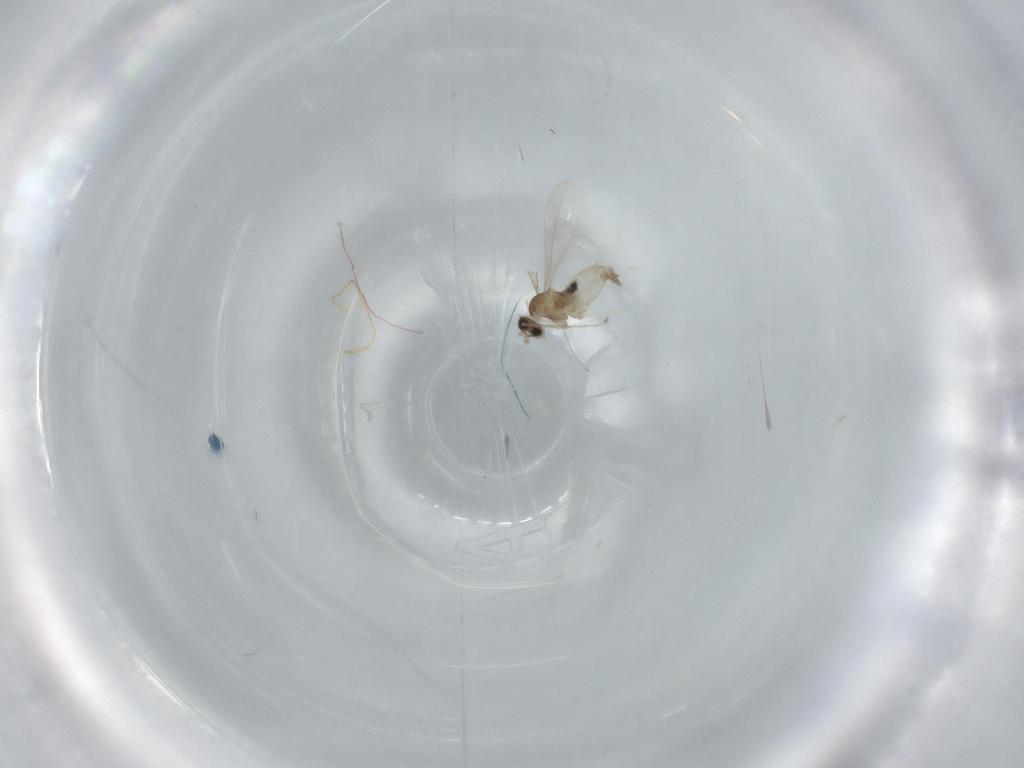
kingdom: Animalia
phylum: Arthropoda
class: Insecta
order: Diptera
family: Cecidomyiidae
